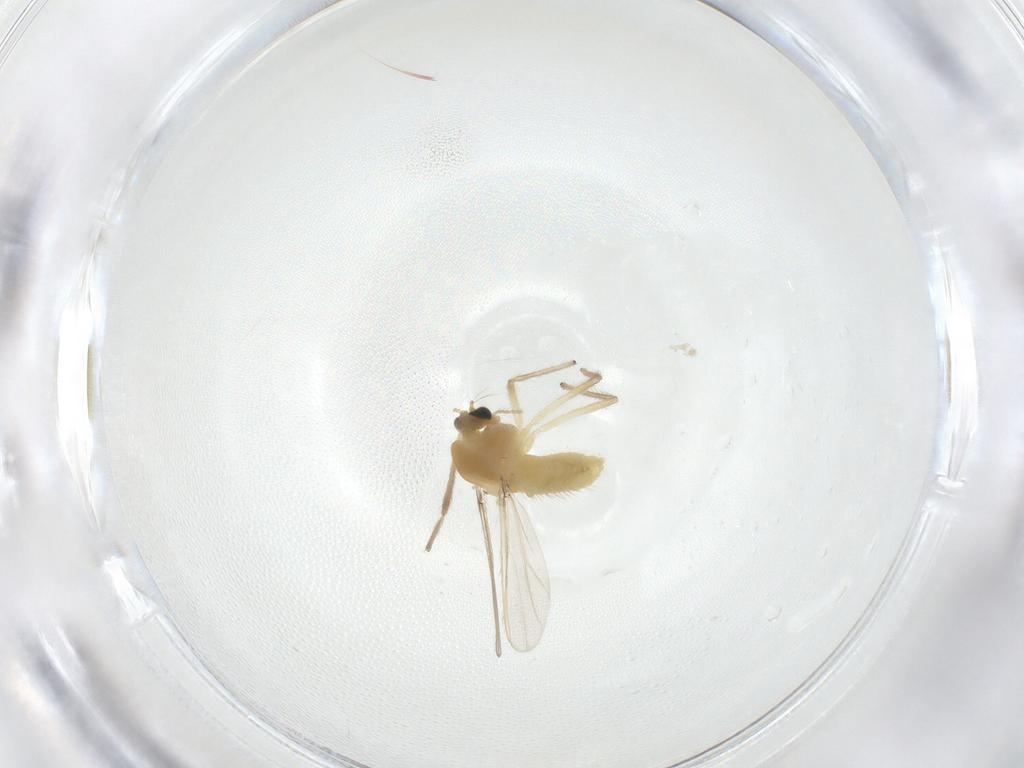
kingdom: Animalia
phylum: Arthropoda
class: Insecta
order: Diptera
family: Chironomidae
